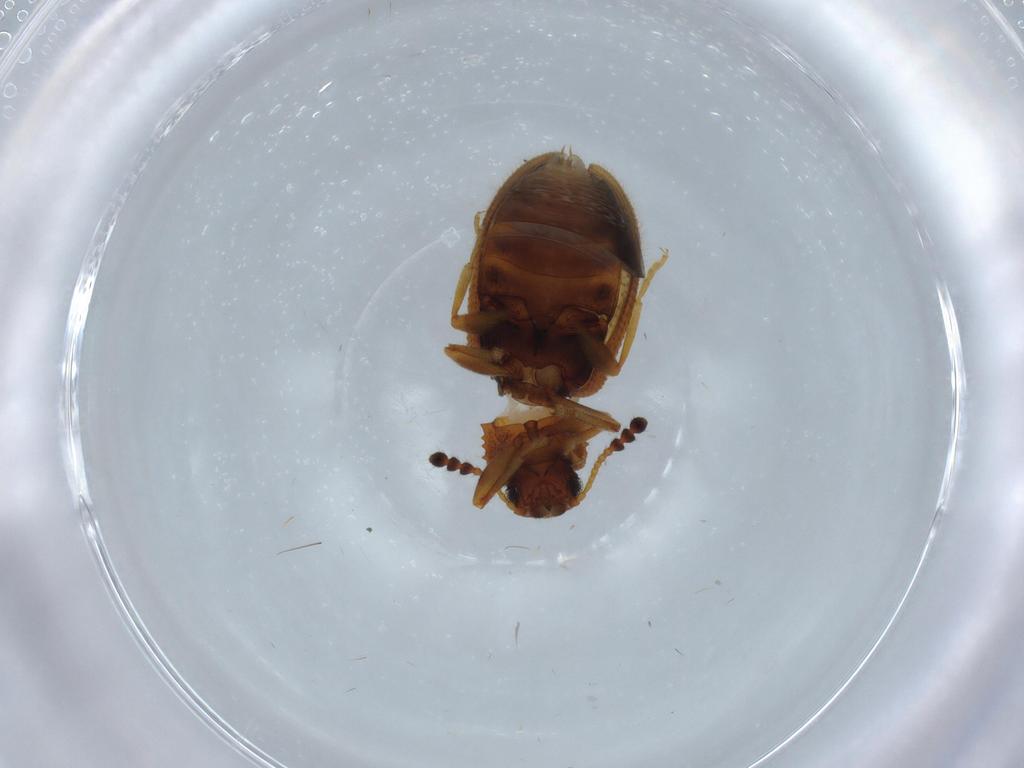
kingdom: Animalia
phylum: Arthropoda
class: Insecta
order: Coleoptera
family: Tenebrionidae
